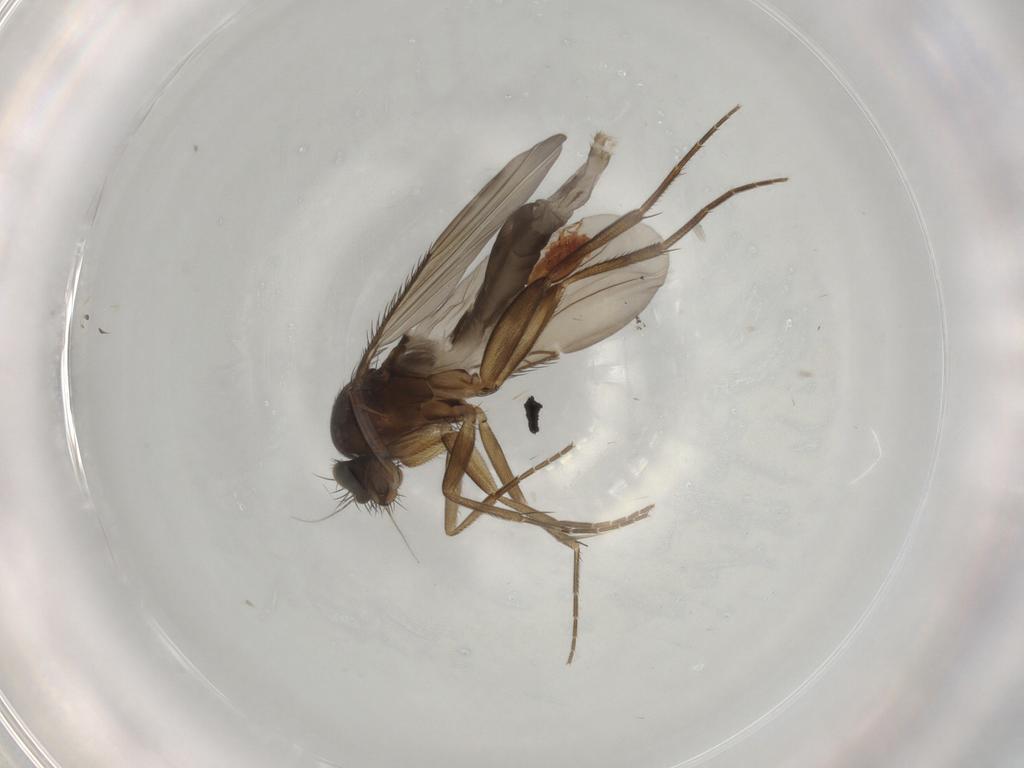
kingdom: Animalia
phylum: Arthropoda
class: Insecta
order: Diptera
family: Phoridae
